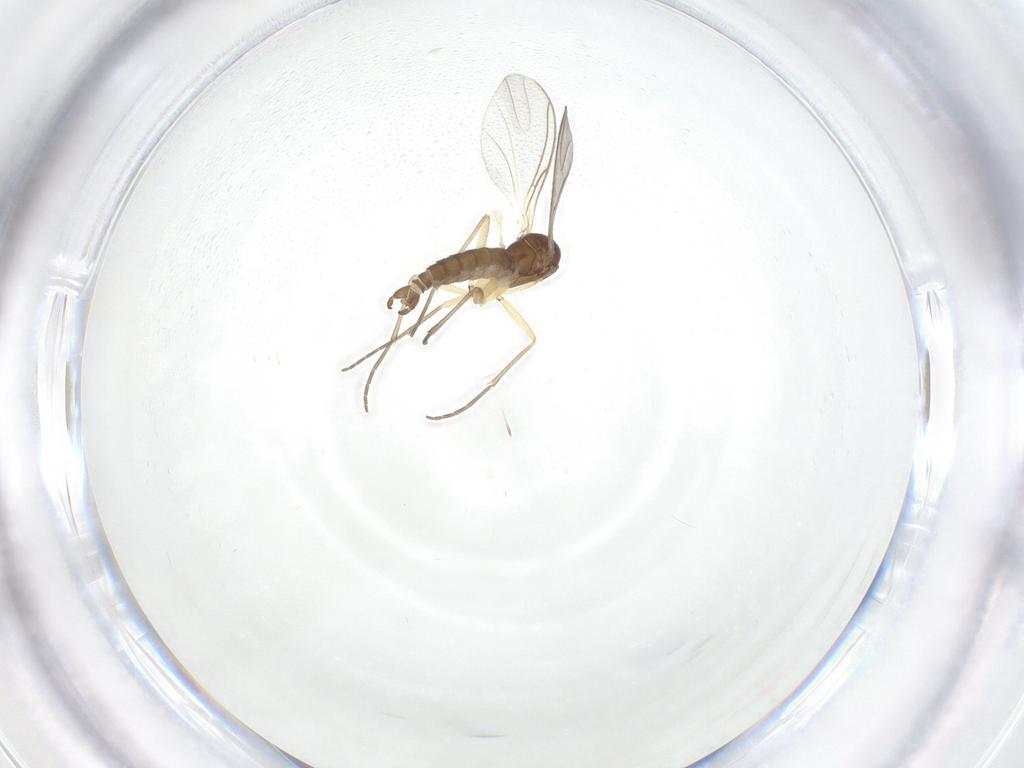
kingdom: Animalia
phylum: Arthropoda
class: Insecta
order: Diptera
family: Sciaridae
